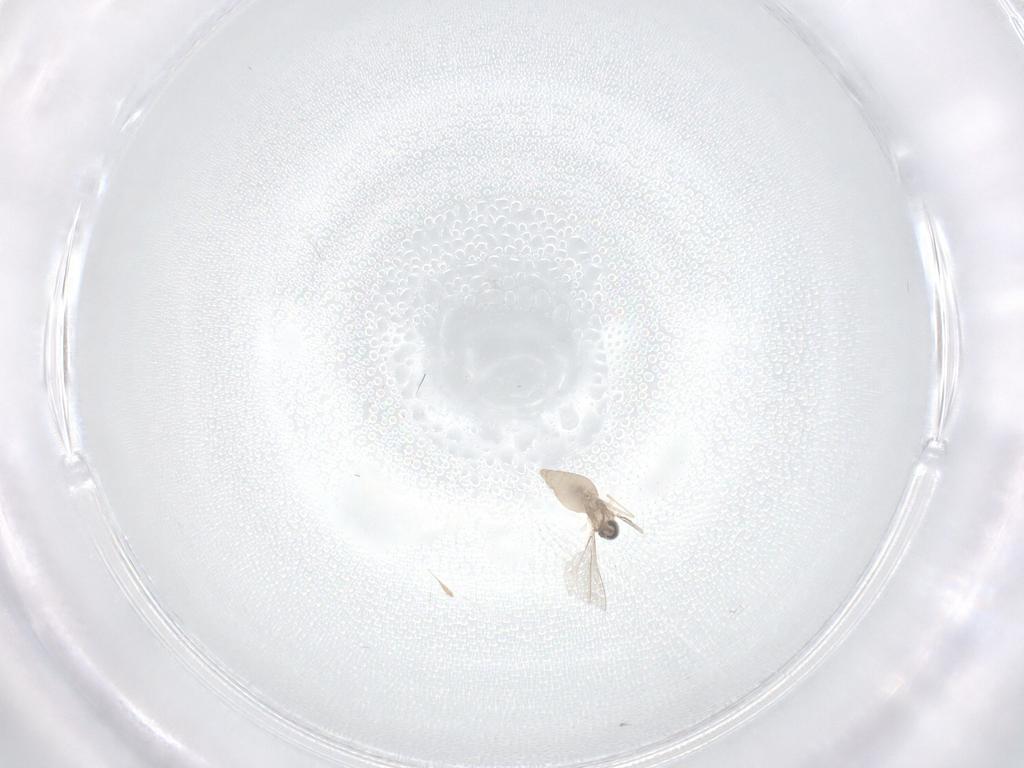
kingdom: Animalia
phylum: Arthropoda
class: Insecta
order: Diptera
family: Cecidomyiidae
